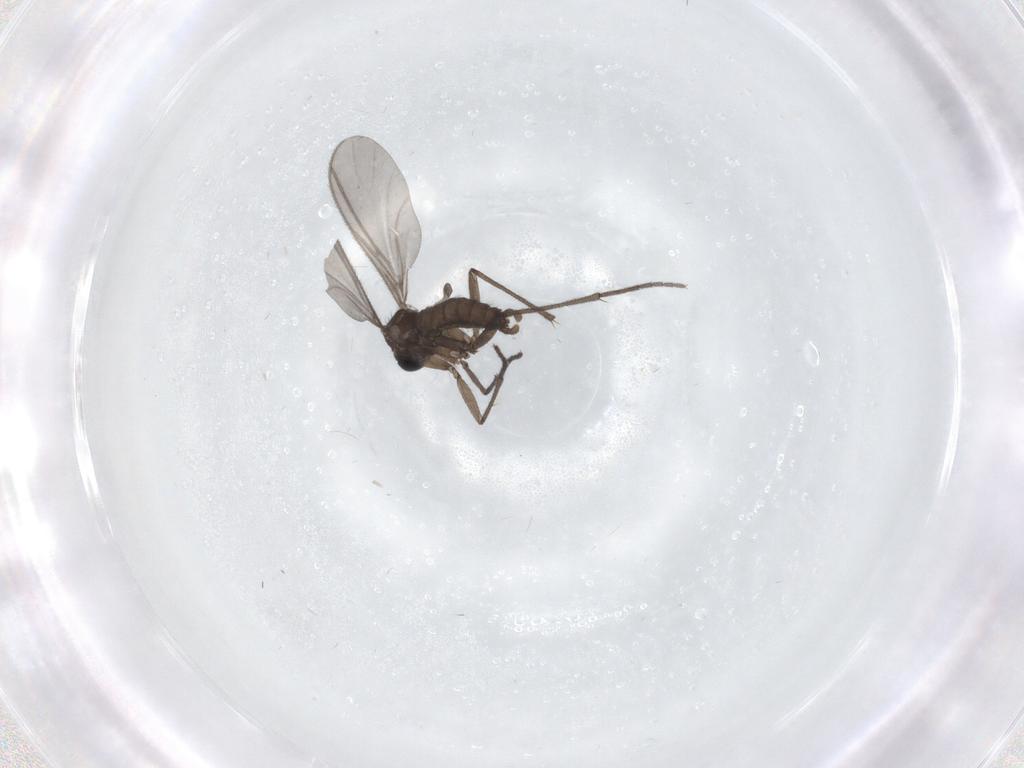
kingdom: Animalia
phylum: Arthropoda
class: Insecta
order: Diptera
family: Sciaridae
